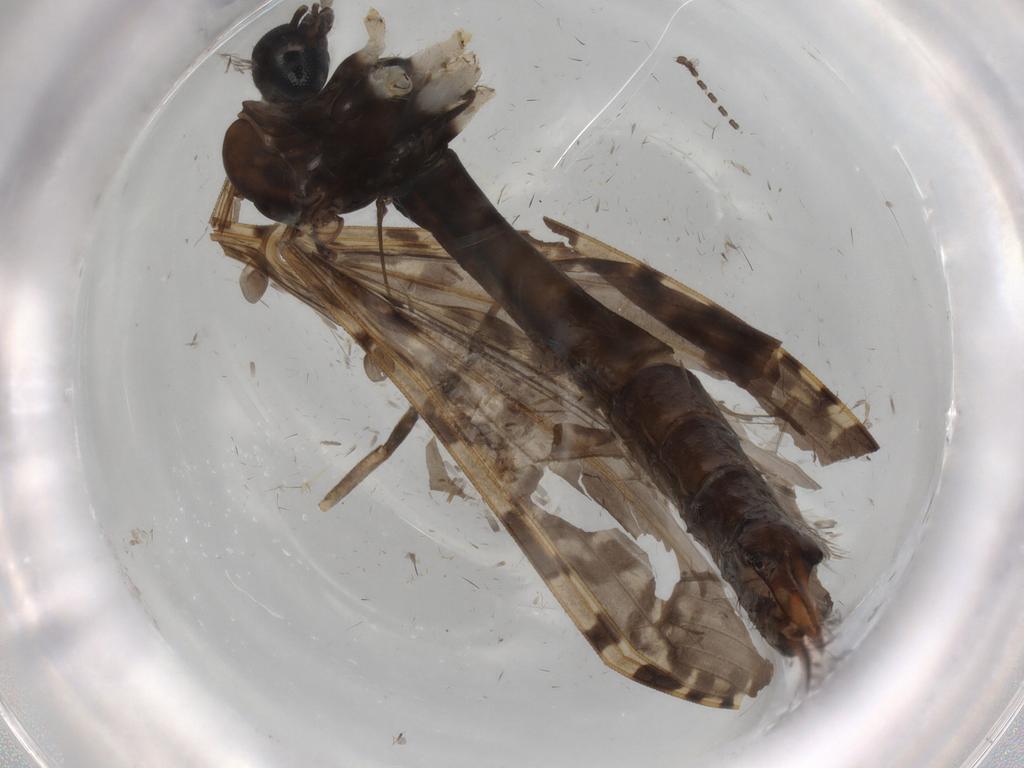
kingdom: Animalia
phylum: Arthropoda
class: Insecta
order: Diptera
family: Limoniidae
